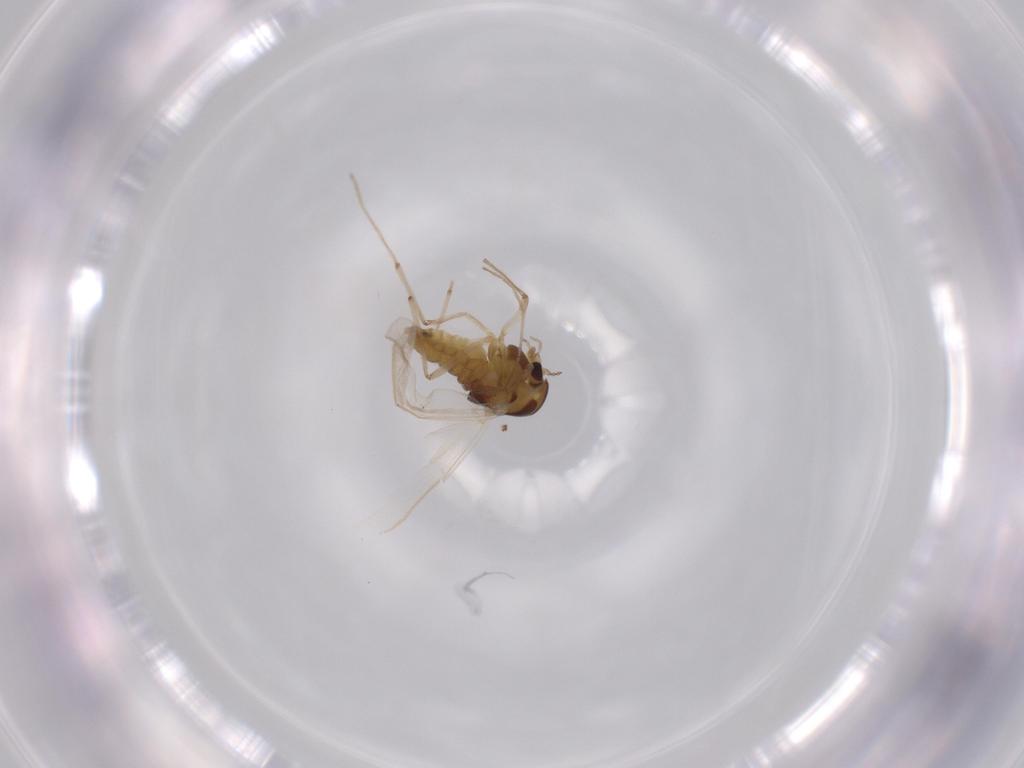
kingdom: Animalia
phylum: Arthropoda
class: Insecta
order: Diptera
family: Chironomidae
